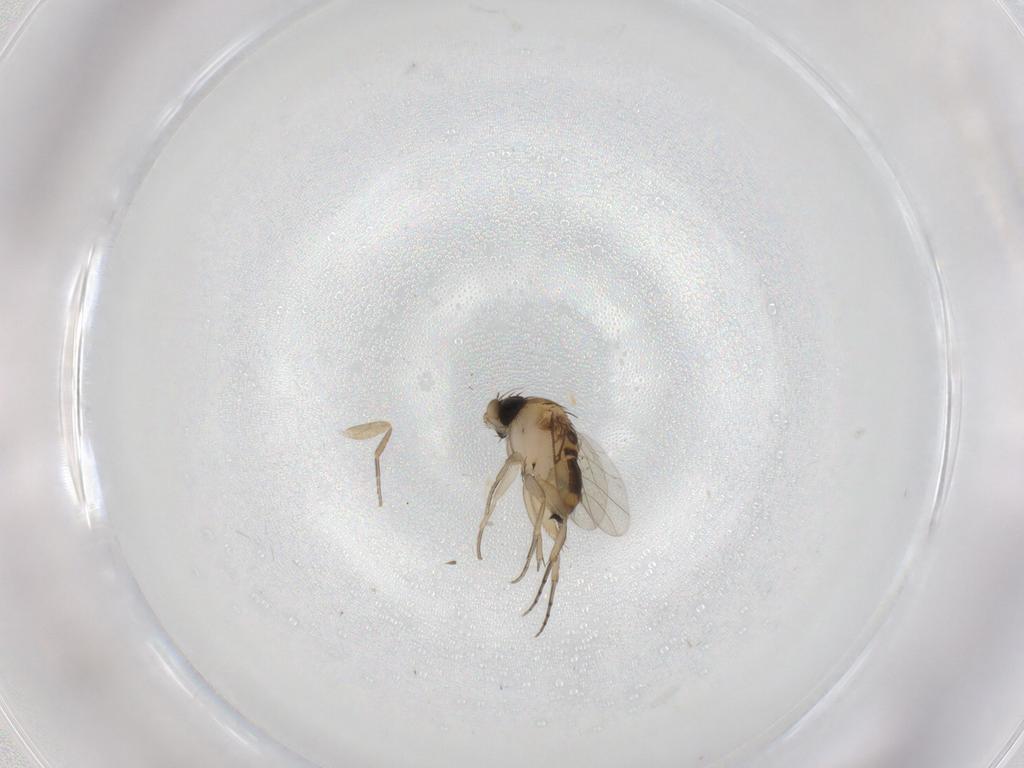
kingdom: Animalia
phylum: Arthropoda
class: Insecta
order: Diptera
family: Phoridae
